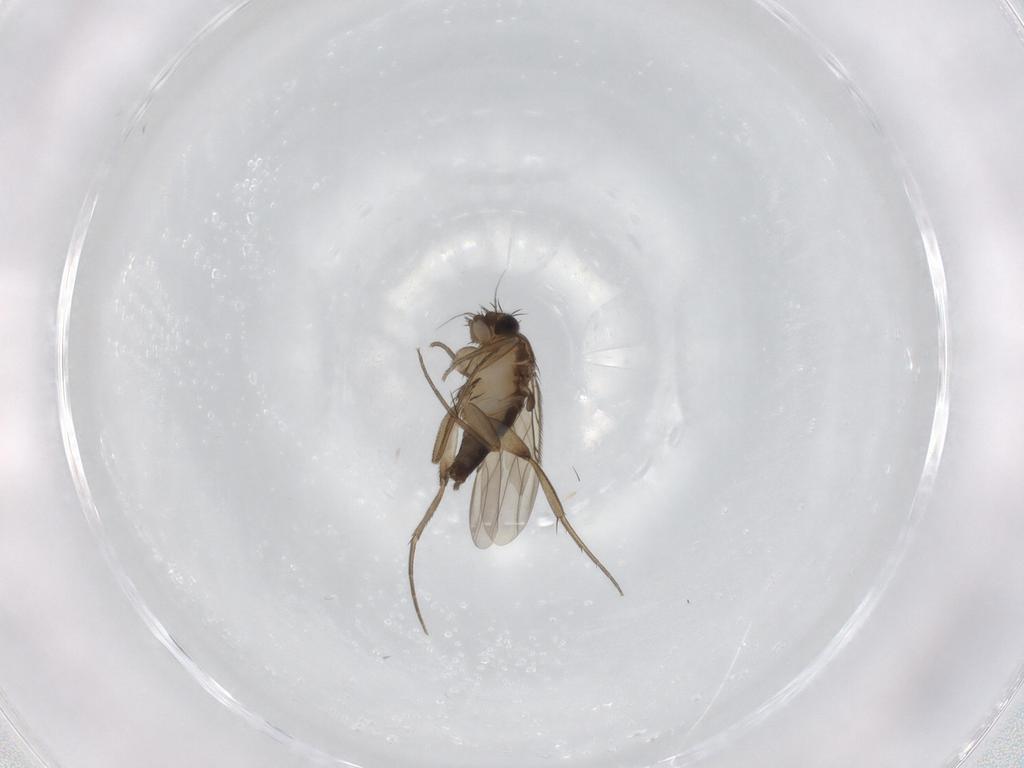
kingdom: Animalia
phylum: Arthropoda
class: Insecta
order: Diptera
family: Phoridae
